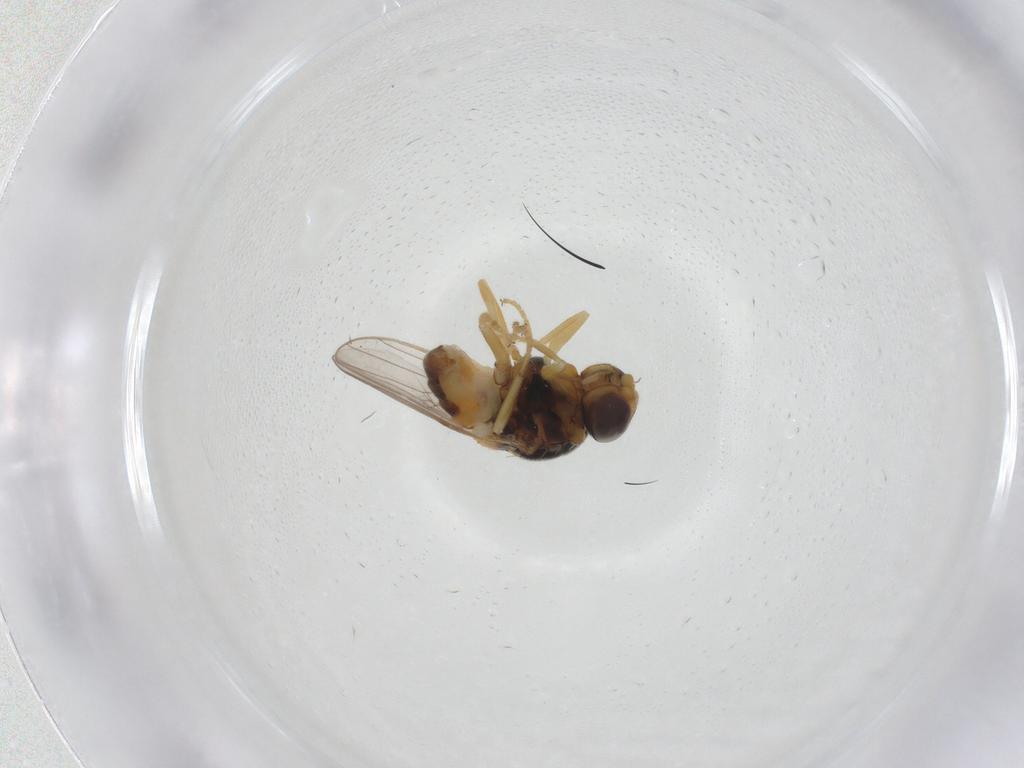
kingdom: Animalia
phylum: Arthropoda
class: Insecta
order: Diptera
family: Chloropidae
